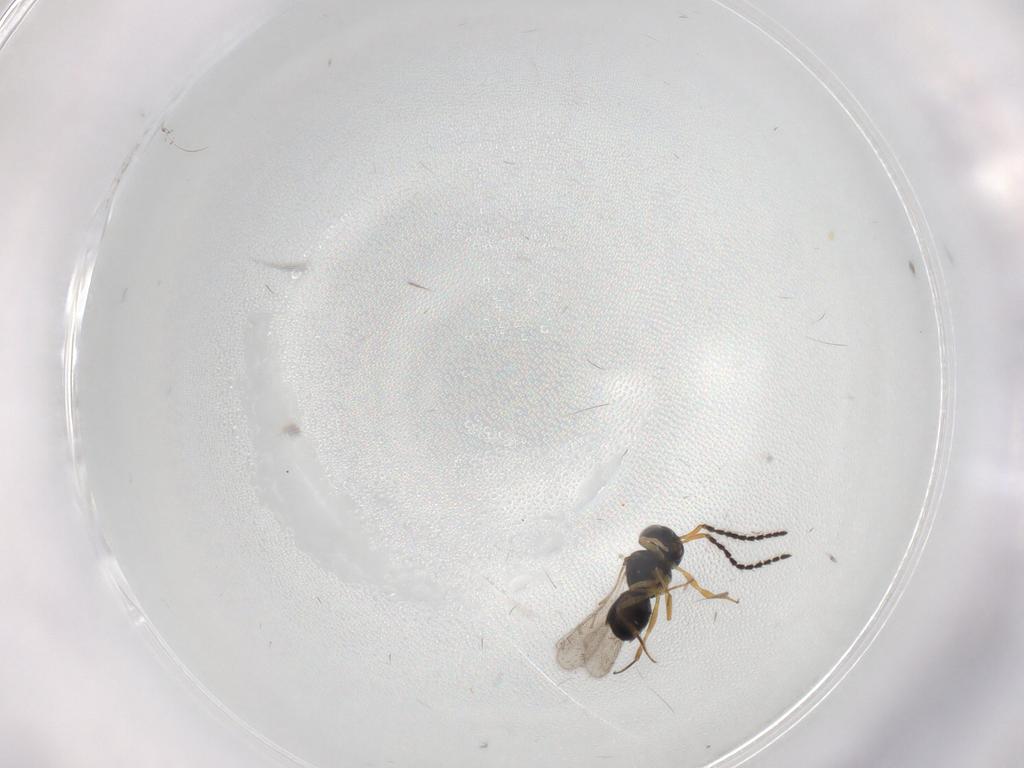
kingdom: Animalia
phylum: Arthropoda
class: Insecta
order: Hymenoptera
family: Scelionidae
